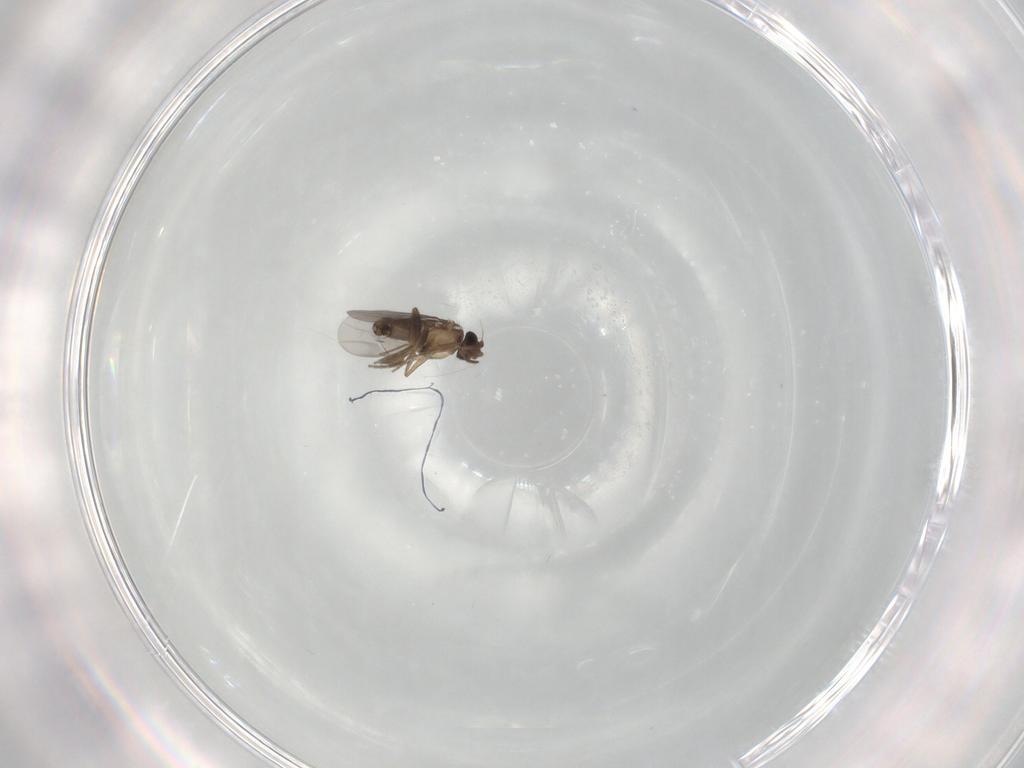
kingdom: Animalia
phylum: Arthropoda
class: Insecta
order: Diptera
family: Phoridae
